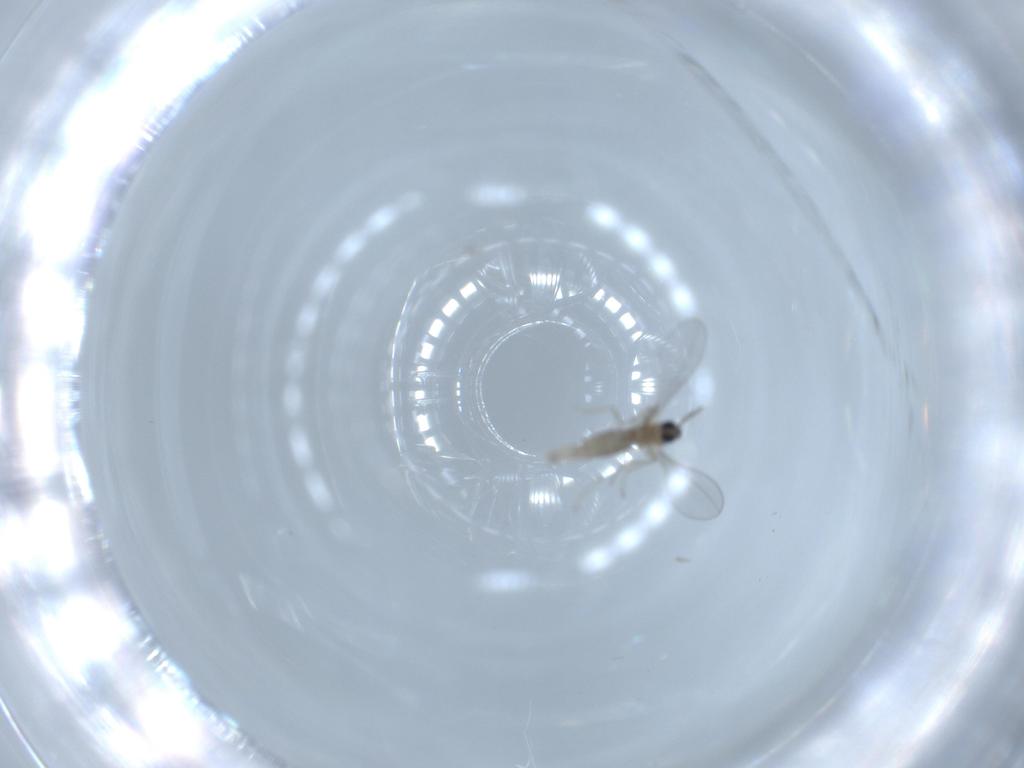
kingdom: Animalia
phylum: Arthropoda
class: Insecta
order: Diptera
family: Cecidomyiidae
